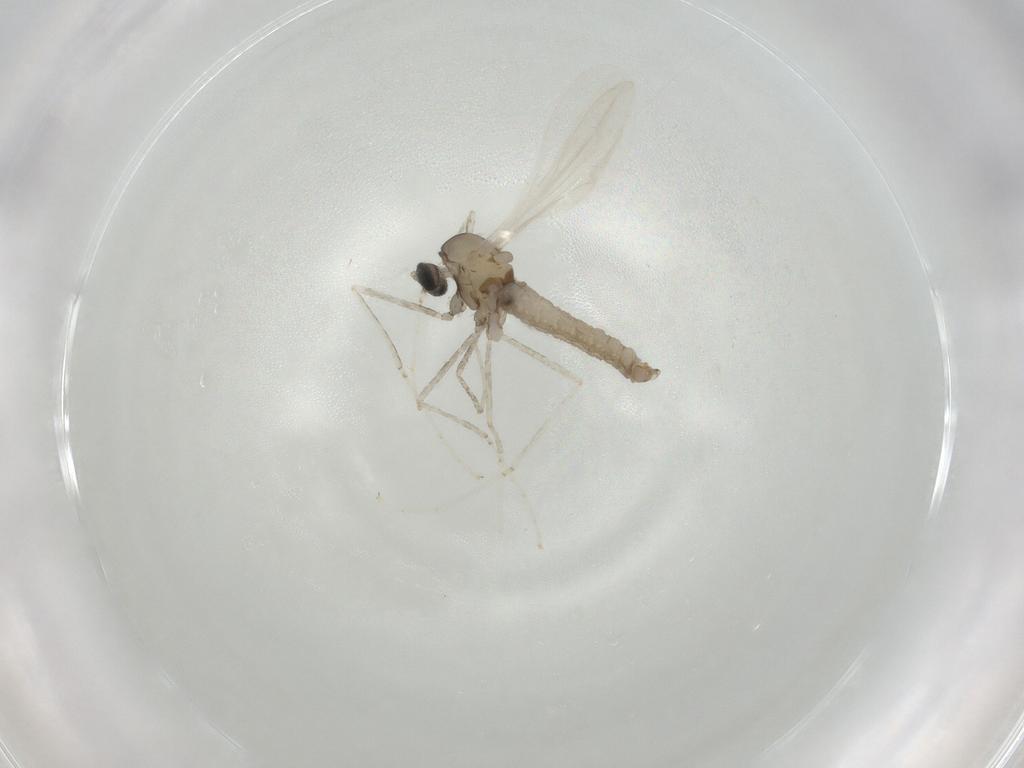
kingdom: Animalia
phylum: Arthropoda
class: Insecta
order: Diptera
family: Cecidomyiidae
